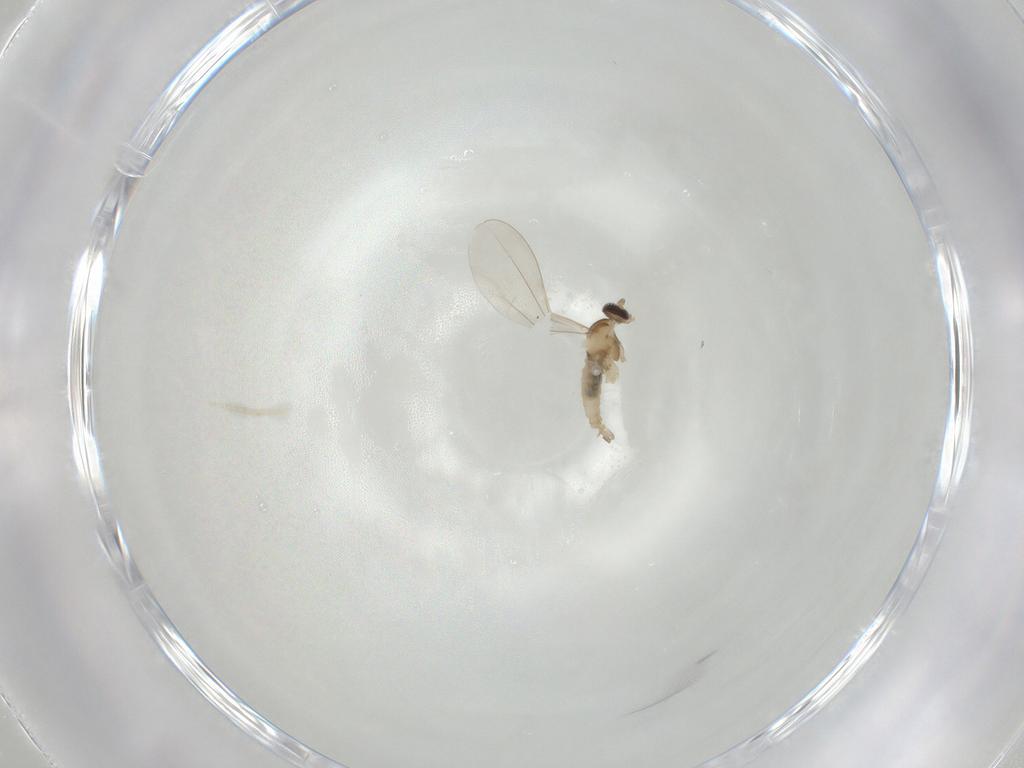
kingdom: Animalia
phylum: Arthropoda
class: Insecta
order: Diptera
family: Cecidomyiidae
